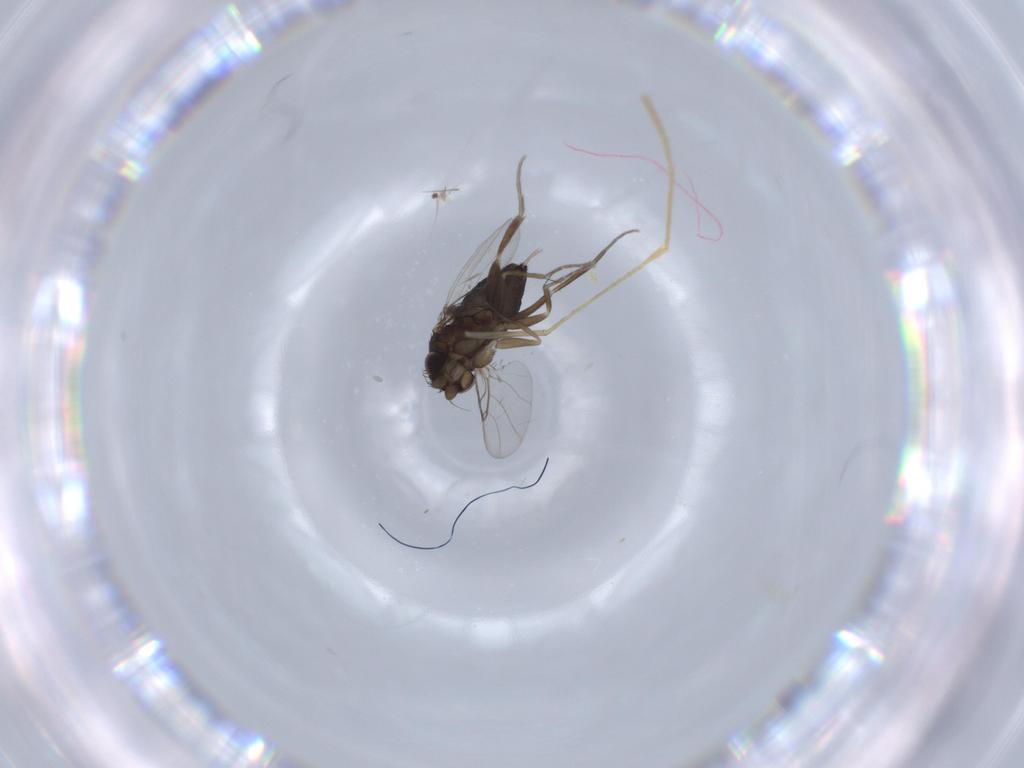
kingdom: Animalia
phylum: Arthropoda
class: Insecta
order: Diptera
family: Phoridae
